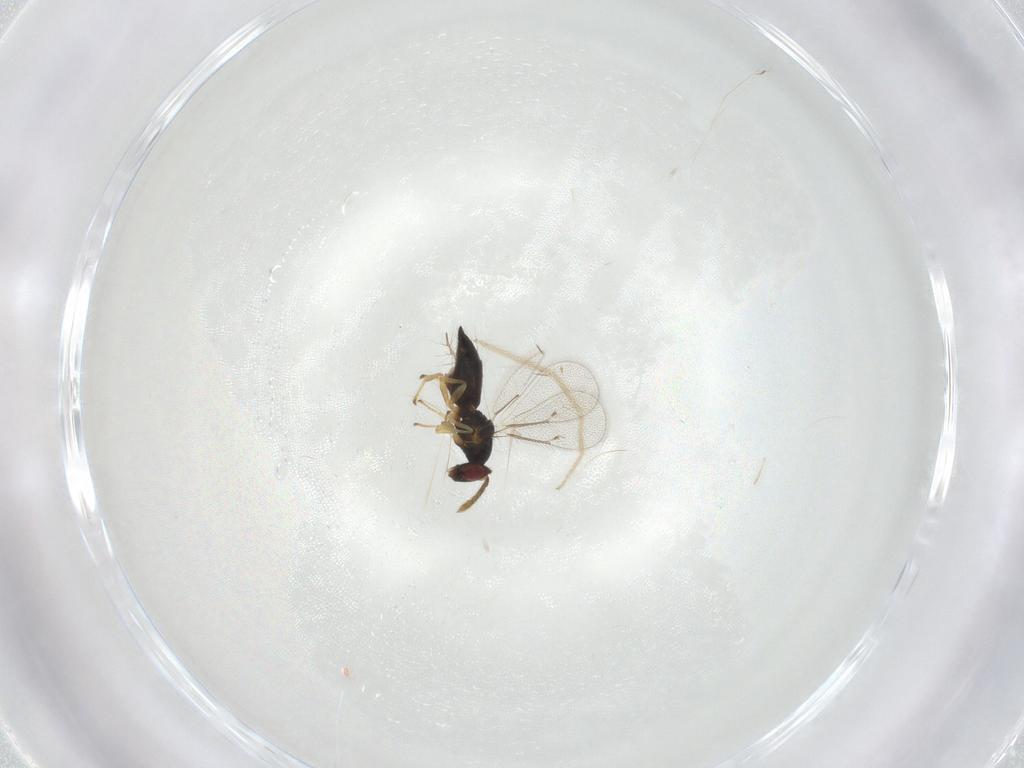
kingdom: Animalia
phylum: Arthropoda
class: Insecta
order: Hymenoptera
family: Eulophidae
